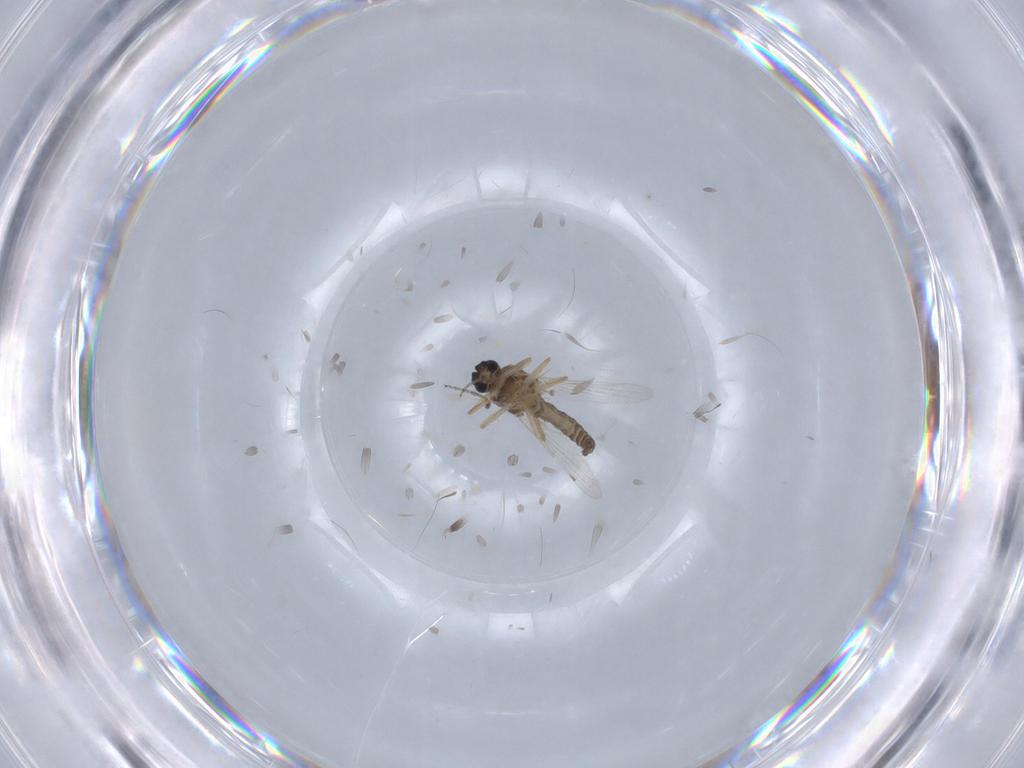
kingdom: Animalia
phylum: Arthropoda
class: Insecta
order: Diptera
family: Ceratopogonidae
